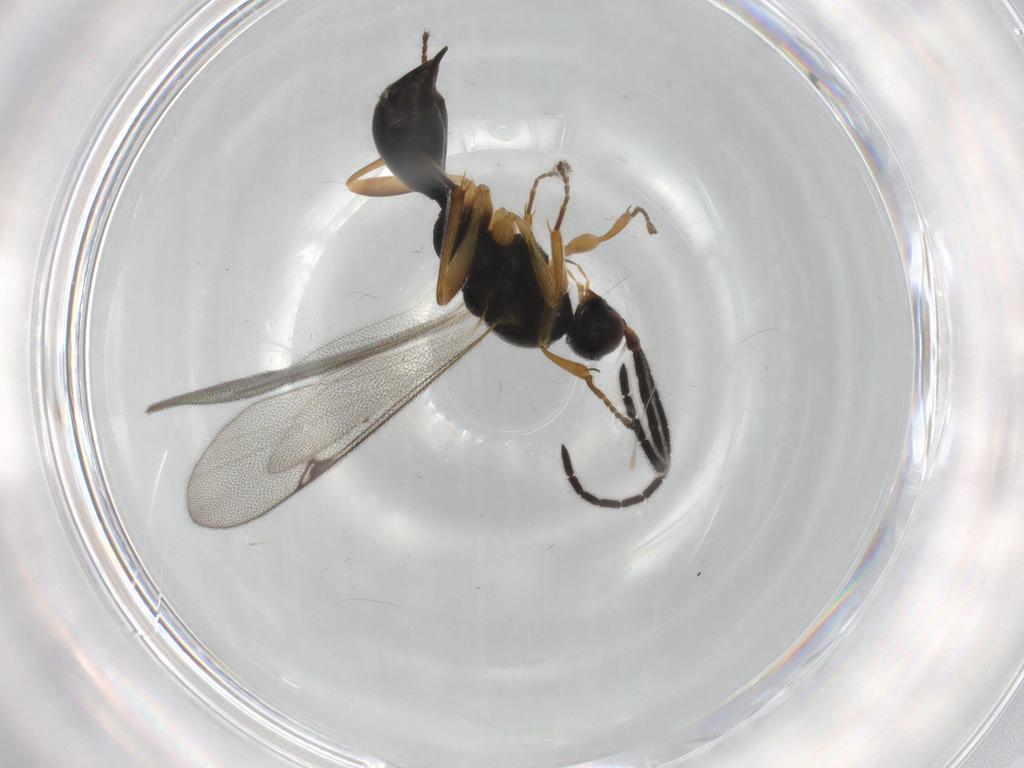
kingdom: Animalia
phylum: Arthropoda
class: Insecta
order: Hymenoptera
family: Proctotrupidae
